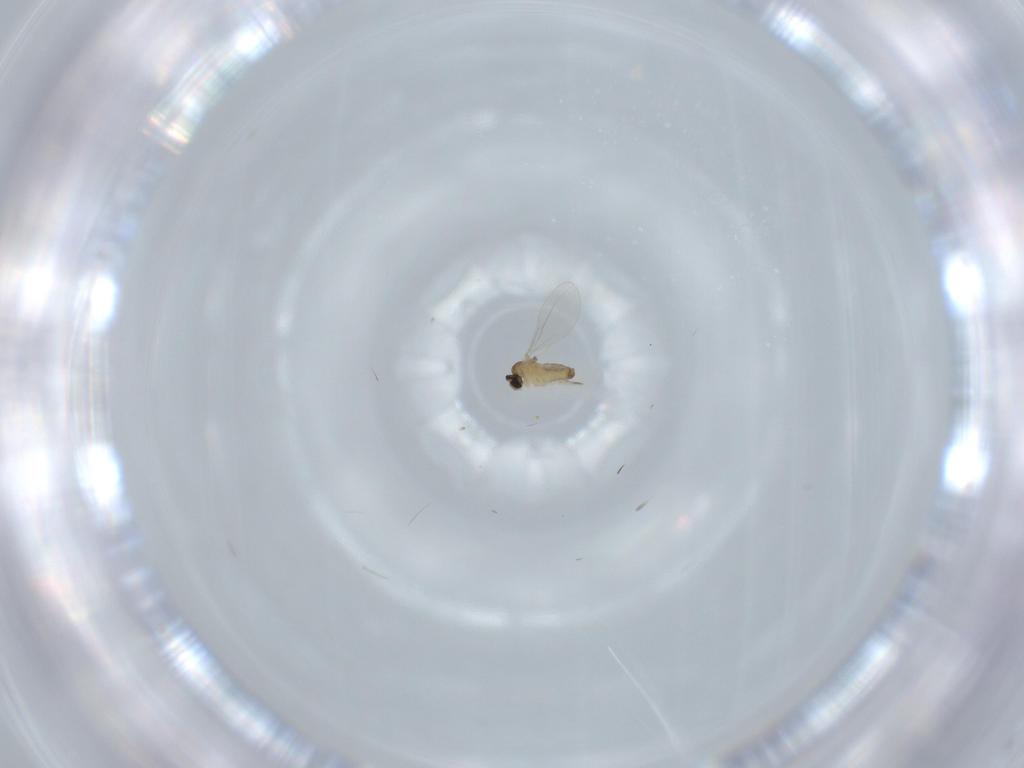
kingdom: Animalia
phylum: Arthropoda
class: Insecta
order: Diptera
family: Cecidomyiidae
